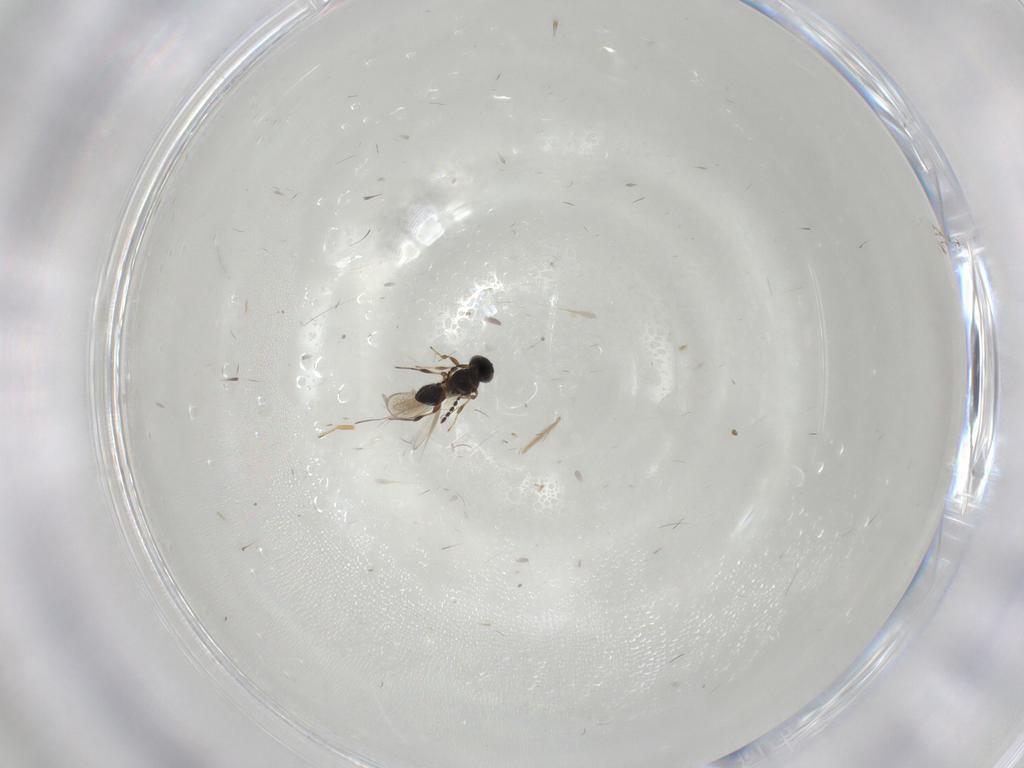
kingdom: Animalia
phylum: Arthropoda
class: Insecta
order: Hymenoptera
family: Platygastridae
